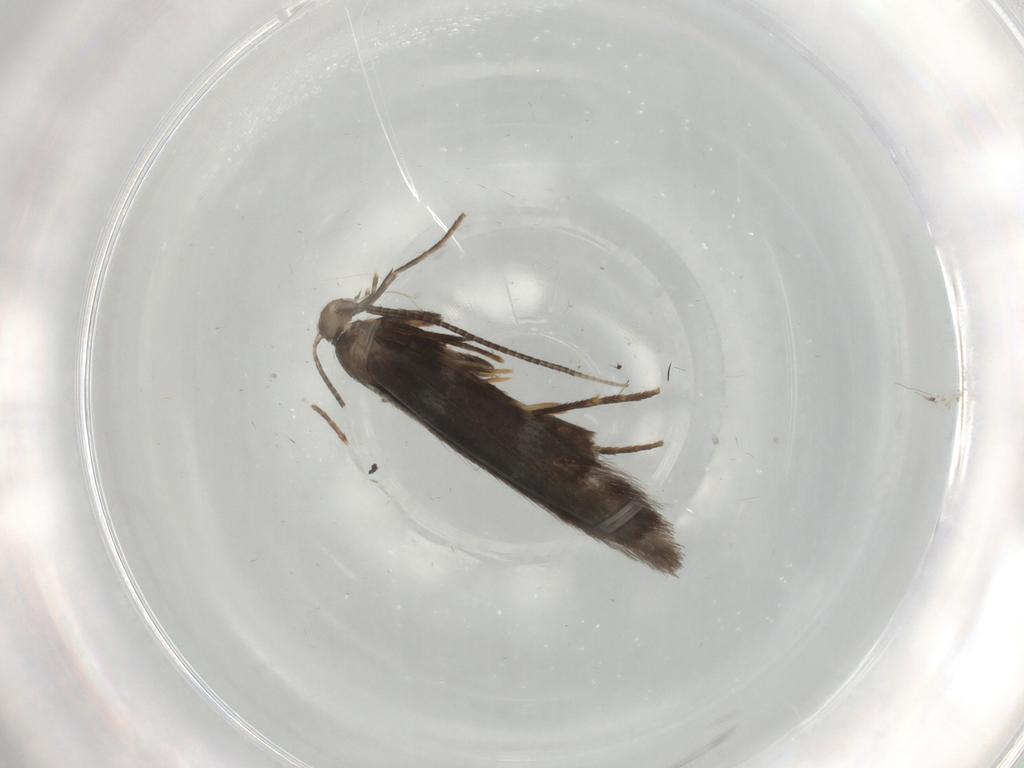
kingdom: Animalia
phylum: Arthropoda
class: Insecta
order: Lepidoptera
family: Gracillariidae
